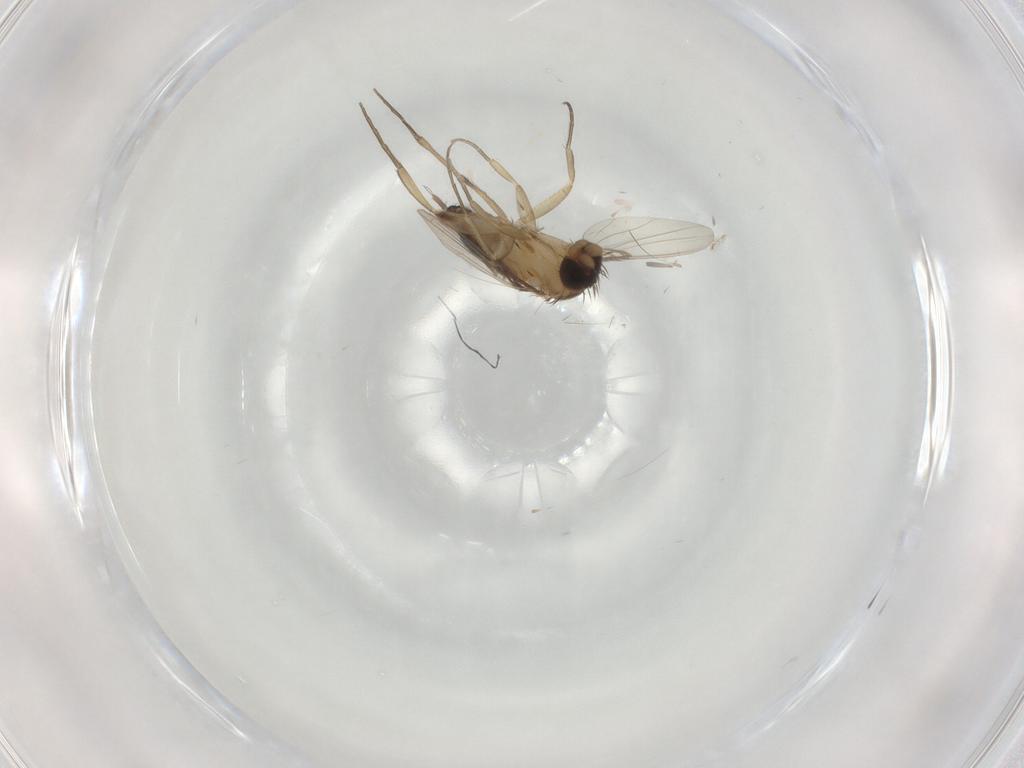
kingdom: Animalia
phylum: Arthropoda
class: Insecta
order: Diptera
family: Phoridae
